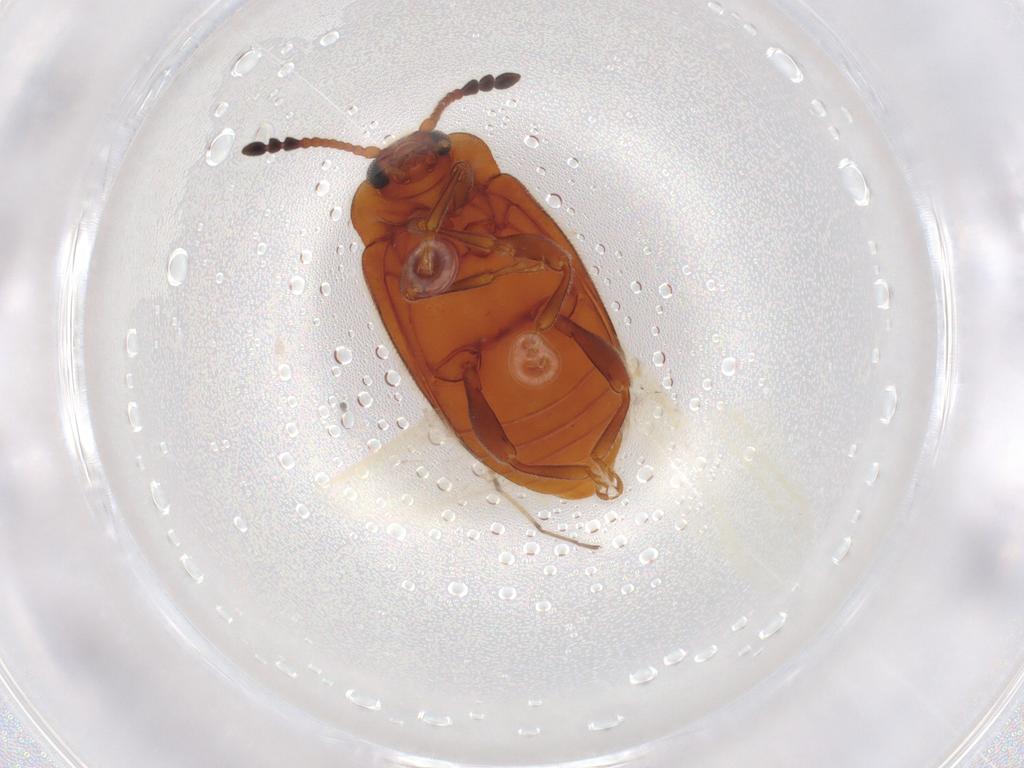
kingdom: Animalia
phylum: Arthropoda
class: Insecta
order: Coleoptera
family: Endomychidae
